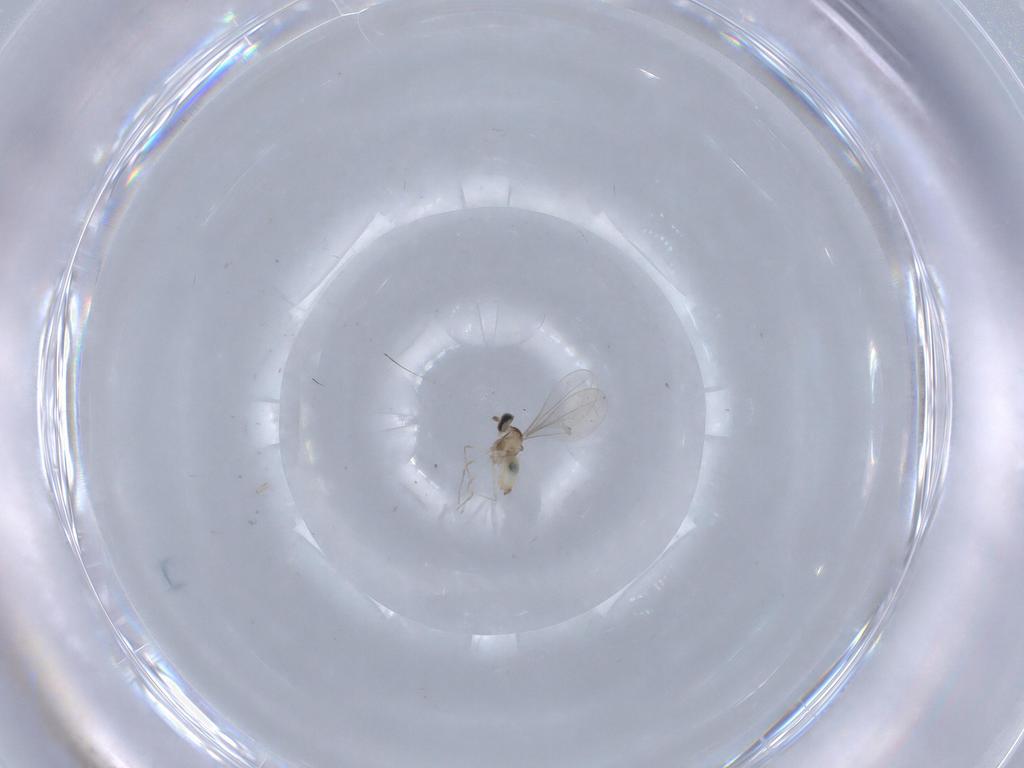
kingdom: Animalia
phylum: Arthropoda
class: Insecta
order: Diptera
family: Cecidomyiidae
